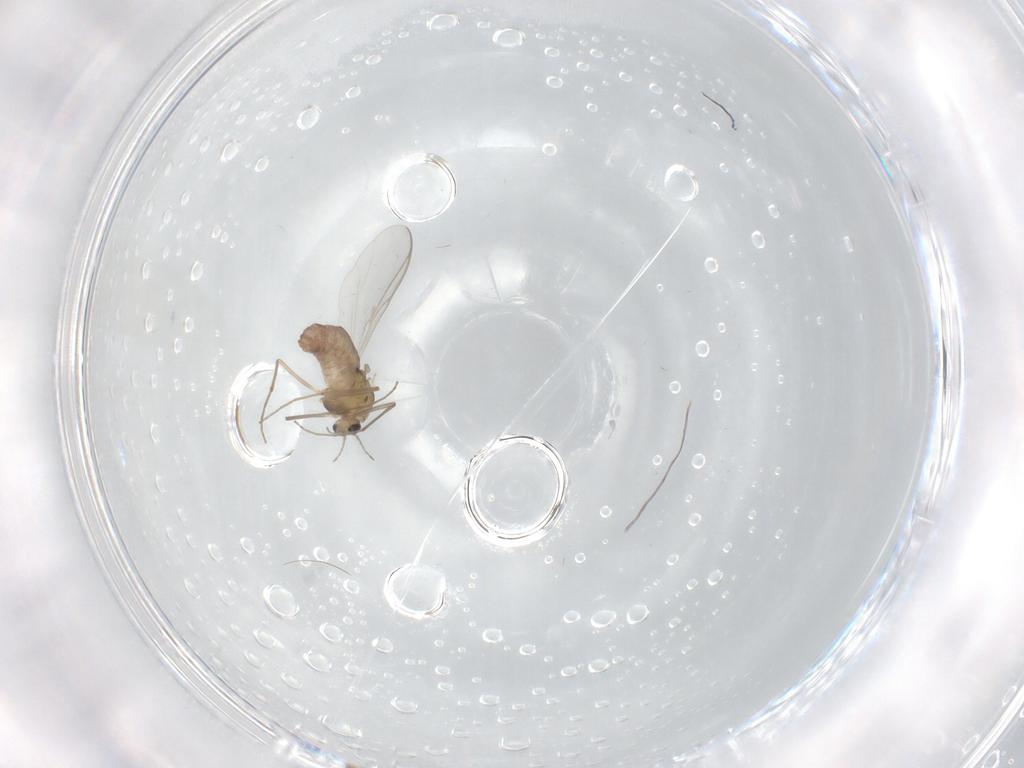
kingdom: Animalia
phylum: Arthropoda
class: Insecta
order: Diptera
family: Chironomidae
